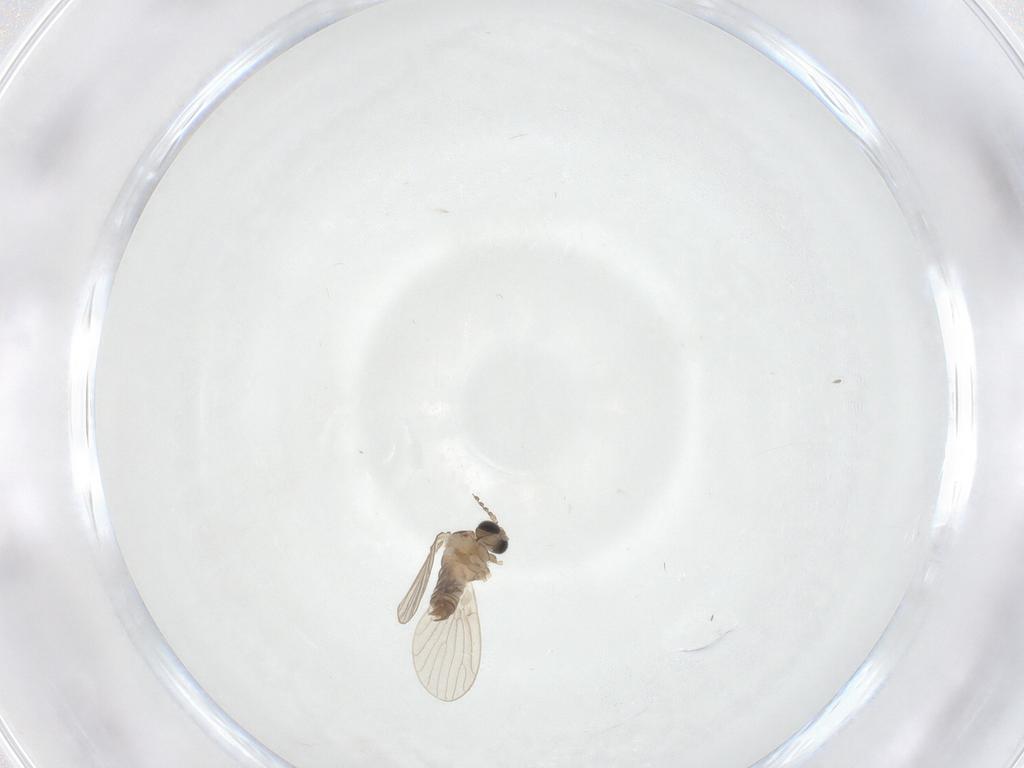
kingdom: Animalia
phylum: Arthropoda
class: Insecta
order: Diptera
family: Psychodidae
